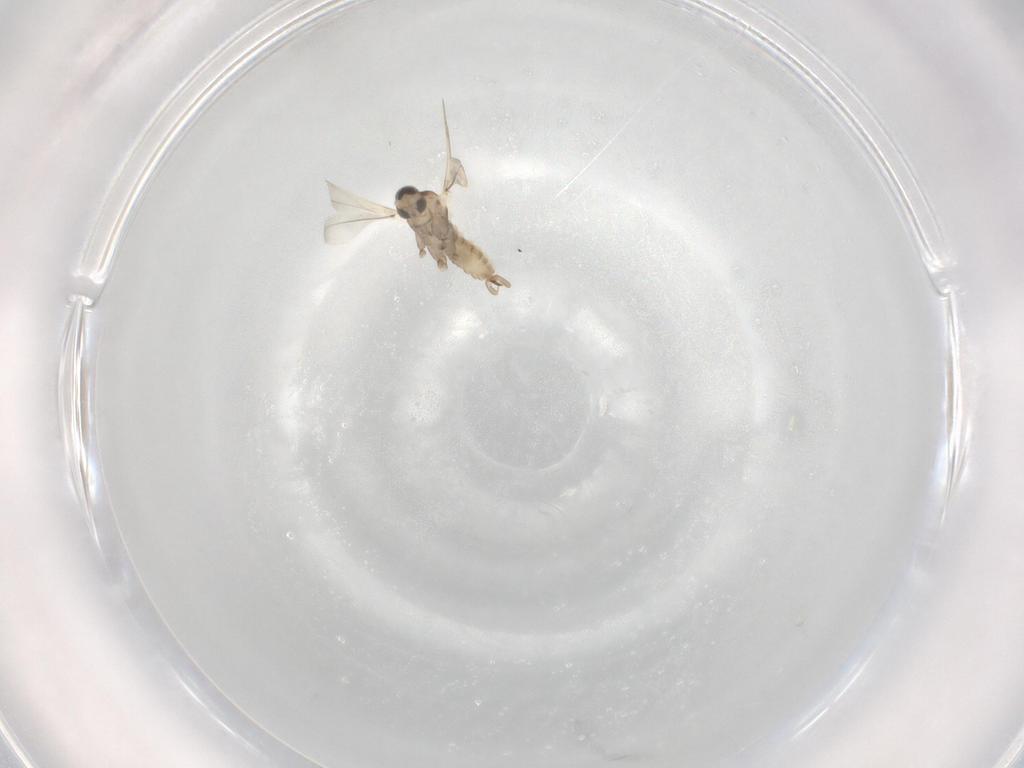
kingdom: Animalia
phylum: Arthropoda
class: Insecta
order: Diptera
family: Cecidomyiidae
